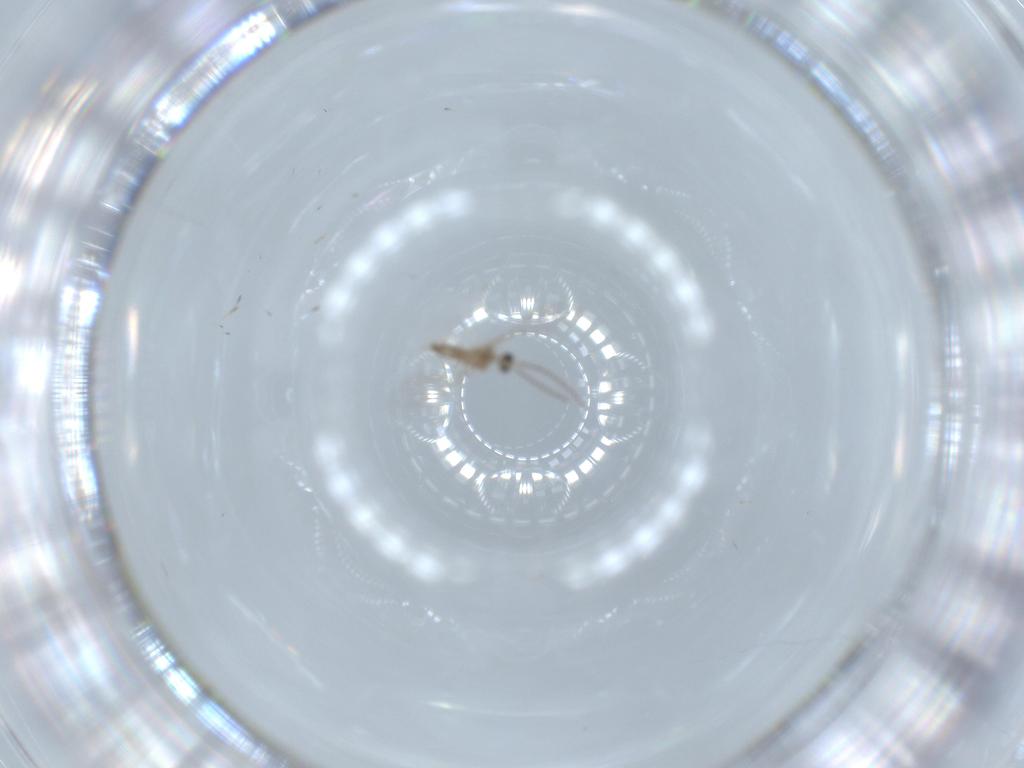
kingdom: Animalia
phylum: Arthropoda
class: Insecta
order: Diptera
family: Cecidomyiidae
